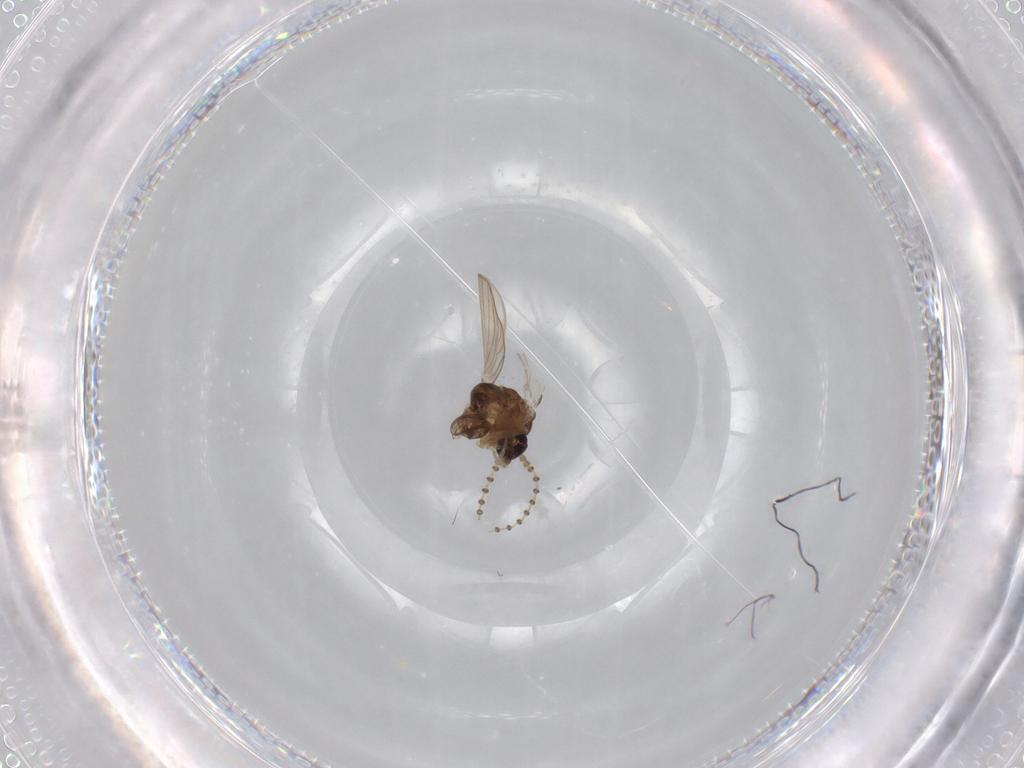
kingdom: Animalia
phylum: Arthropoda
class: Insecta
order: Diptera
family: Psychodidae
